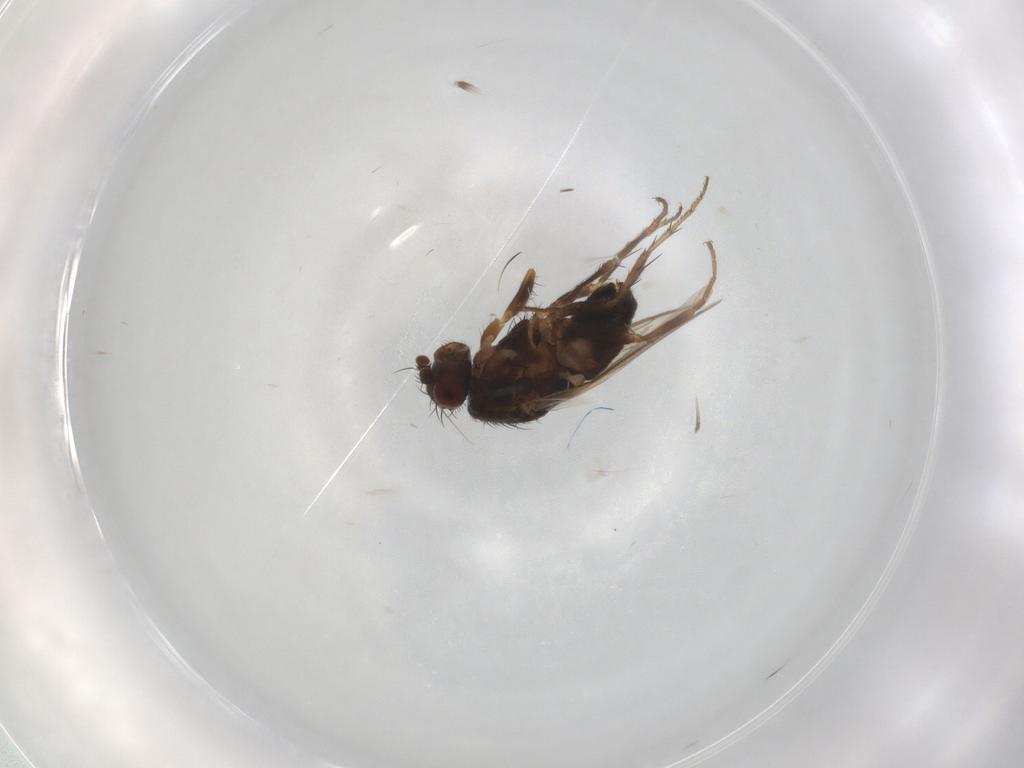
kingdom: Animalia
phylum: Arthropoda
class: Insecta
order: Diptera
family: Sphaeroceridae
